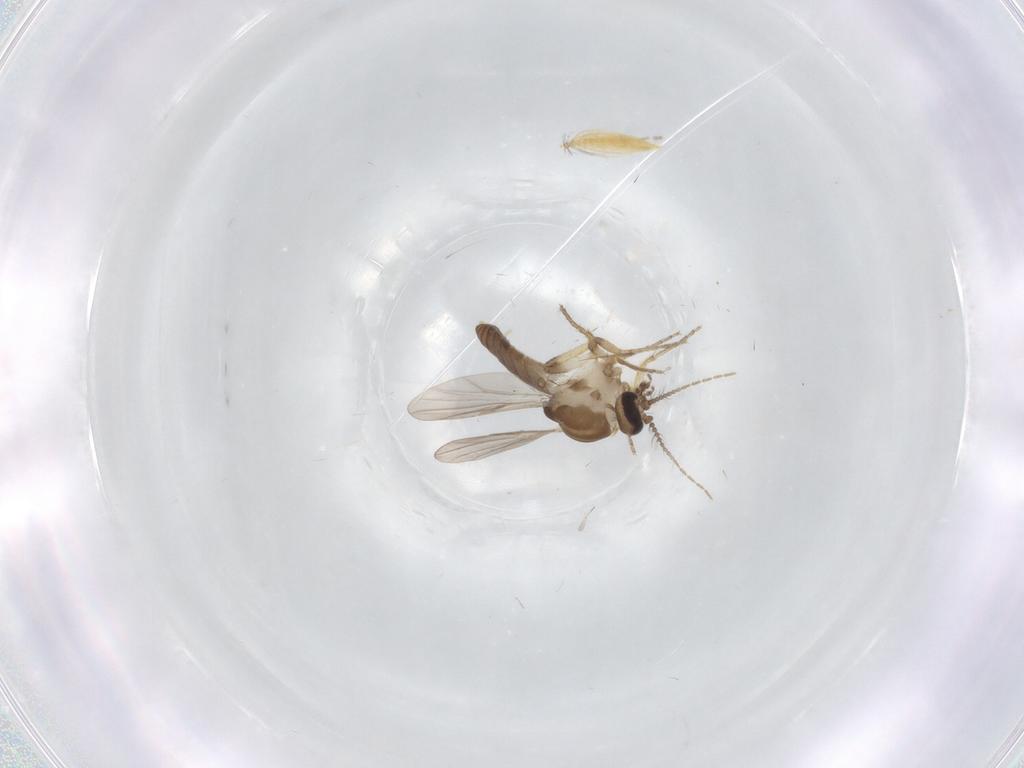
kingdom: Animalia
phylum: Arthropoda
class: Insecta
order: Diptera
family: Ceratopogonidae
